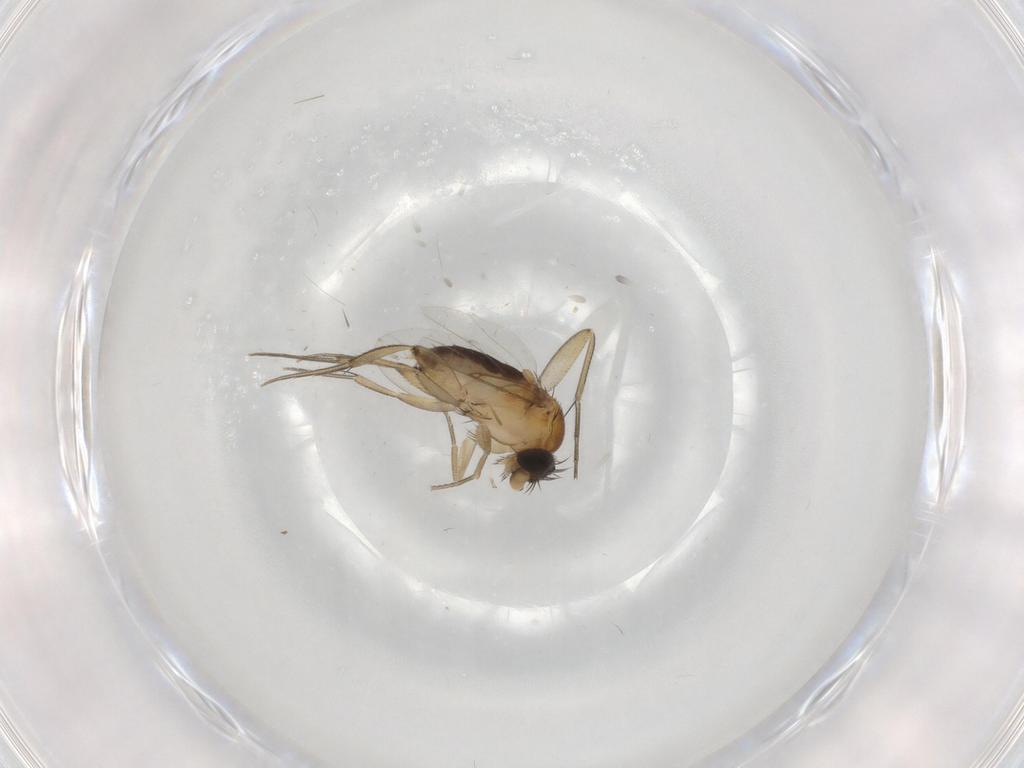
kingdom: Animalia
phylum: Arthropoda
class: Insecta
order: Diptera
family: Phoridae
